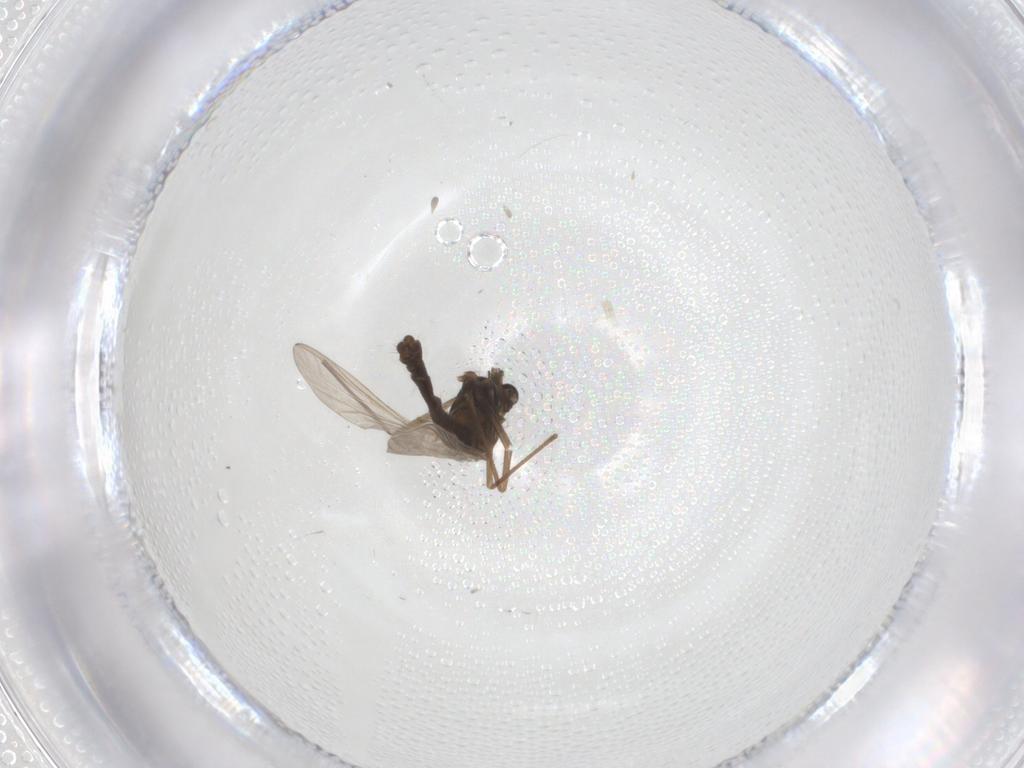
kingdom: Animalia
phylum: Arthropoda
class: Insecta
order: Diptera
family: Chironomidae
